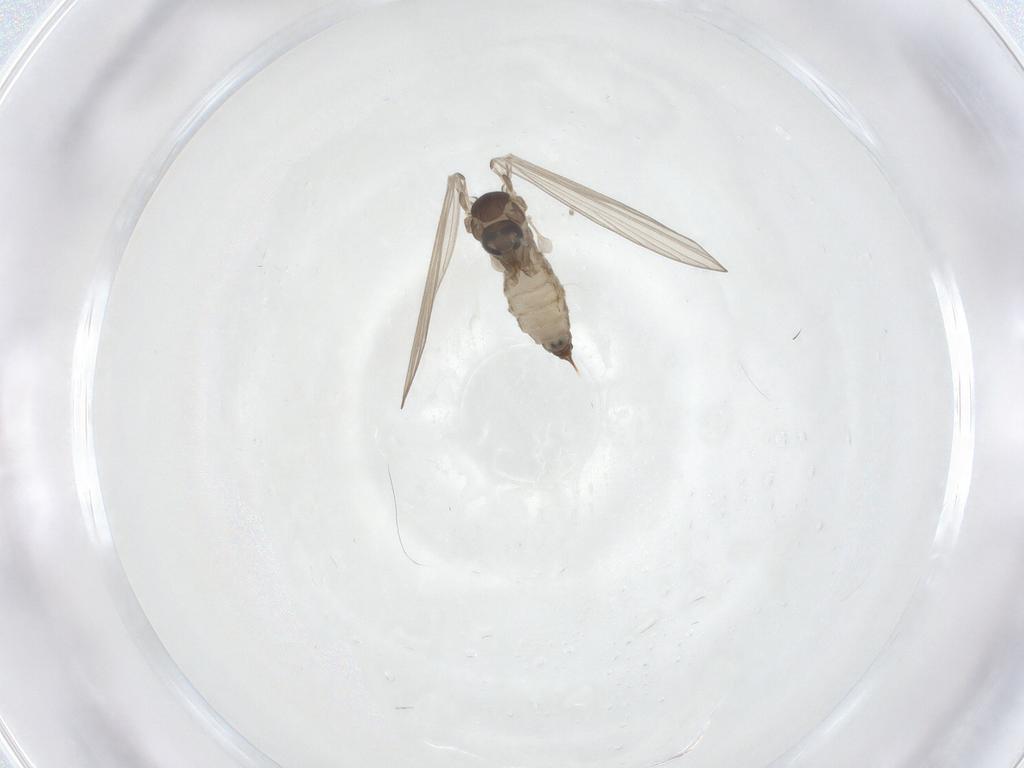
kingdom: Animalia
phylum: Arthropoda
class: Insecta
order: Diptera
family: Psychodidae
